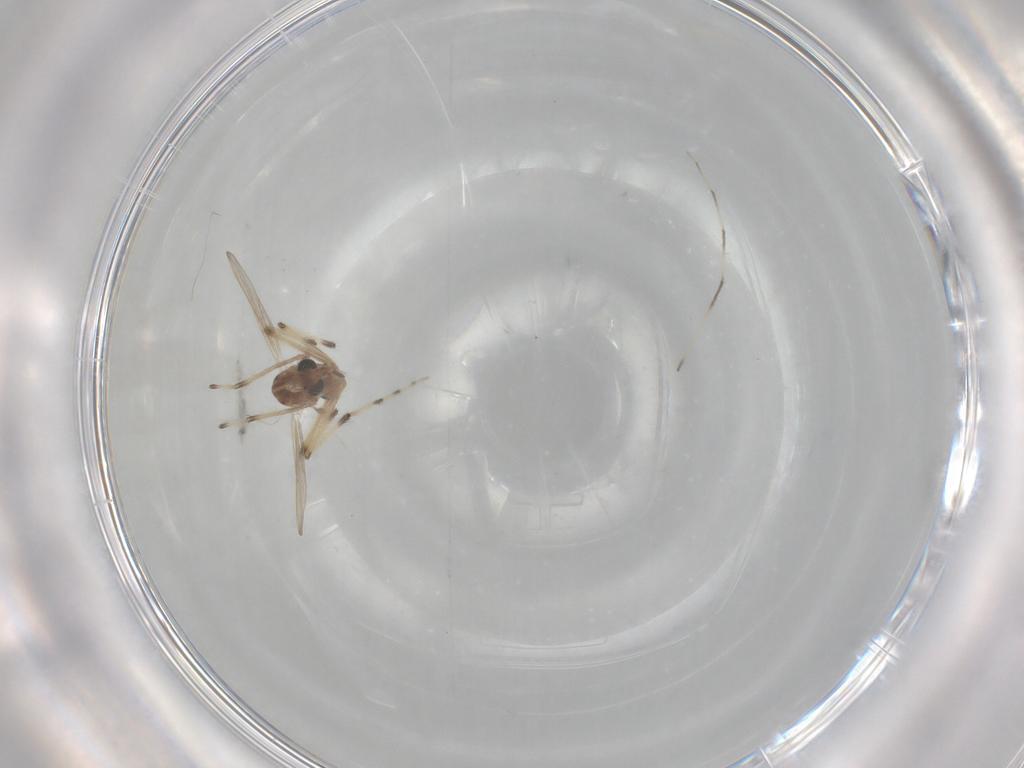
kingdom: Animalia
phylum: Arthropoda
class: Insecta
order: Diptera
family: Chironomidae
